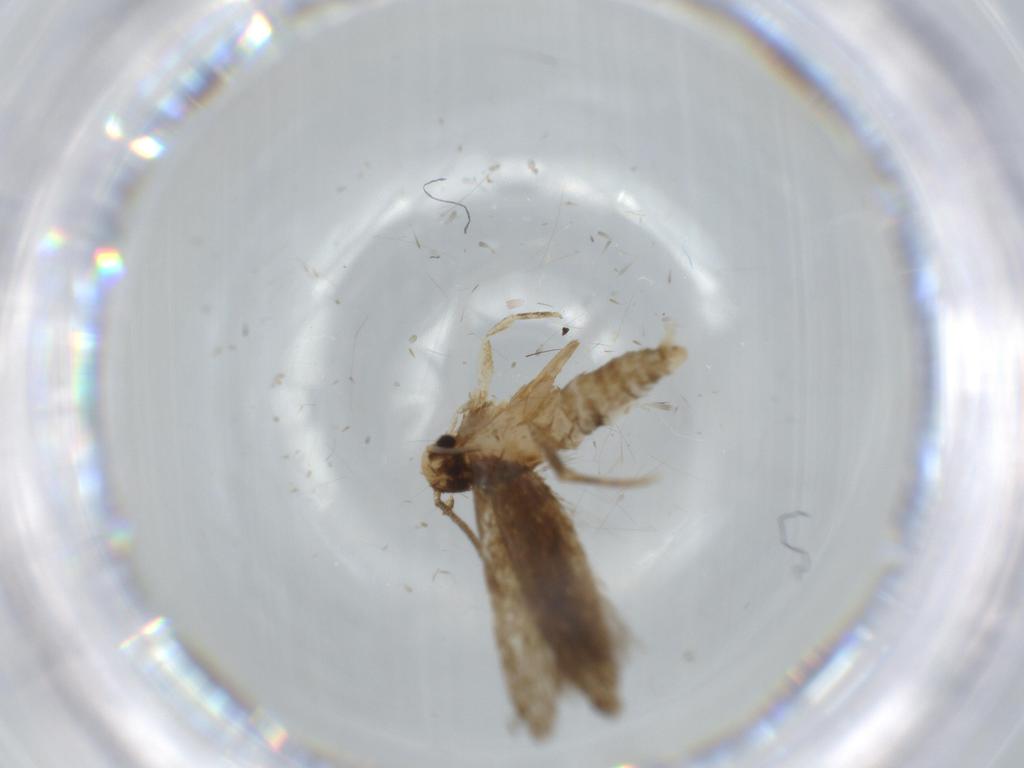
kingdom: Animalia
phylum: Arthropoda
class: Insecta
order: Lepidoptera
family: Tineidae
